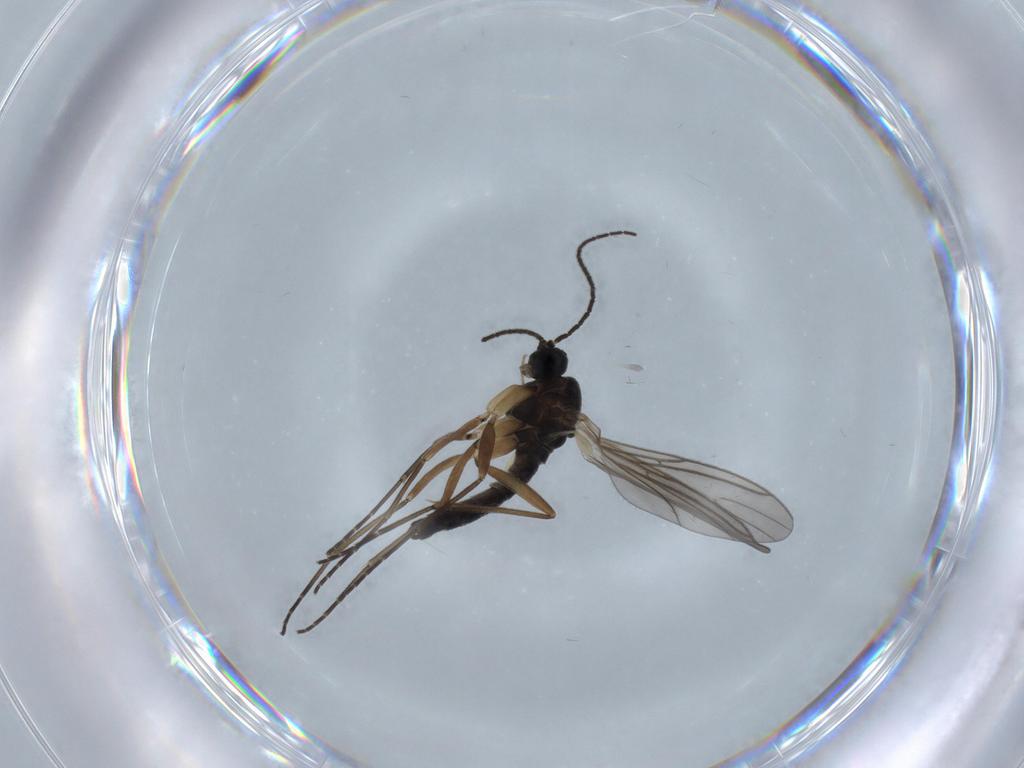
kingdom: Animalia
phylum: Arthropoda
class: Insecta
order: Diptera
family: Sciaridae
